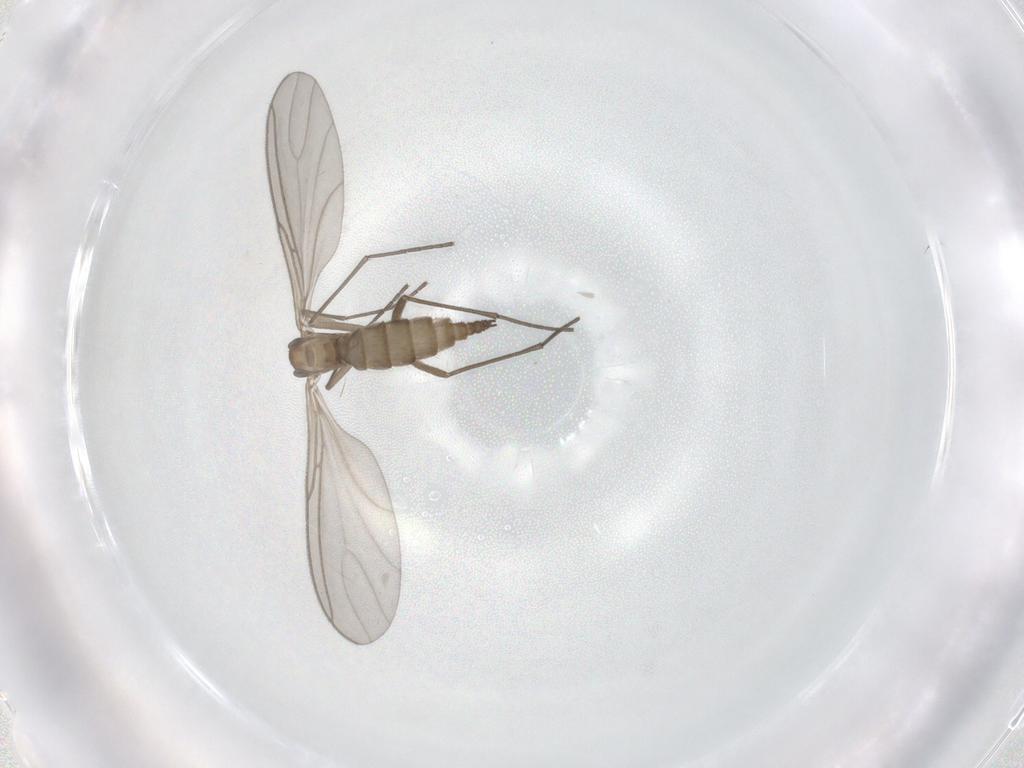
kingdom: Animalia
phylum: Arthropoda
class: Insecta
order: Diptera
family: Sciaridae
